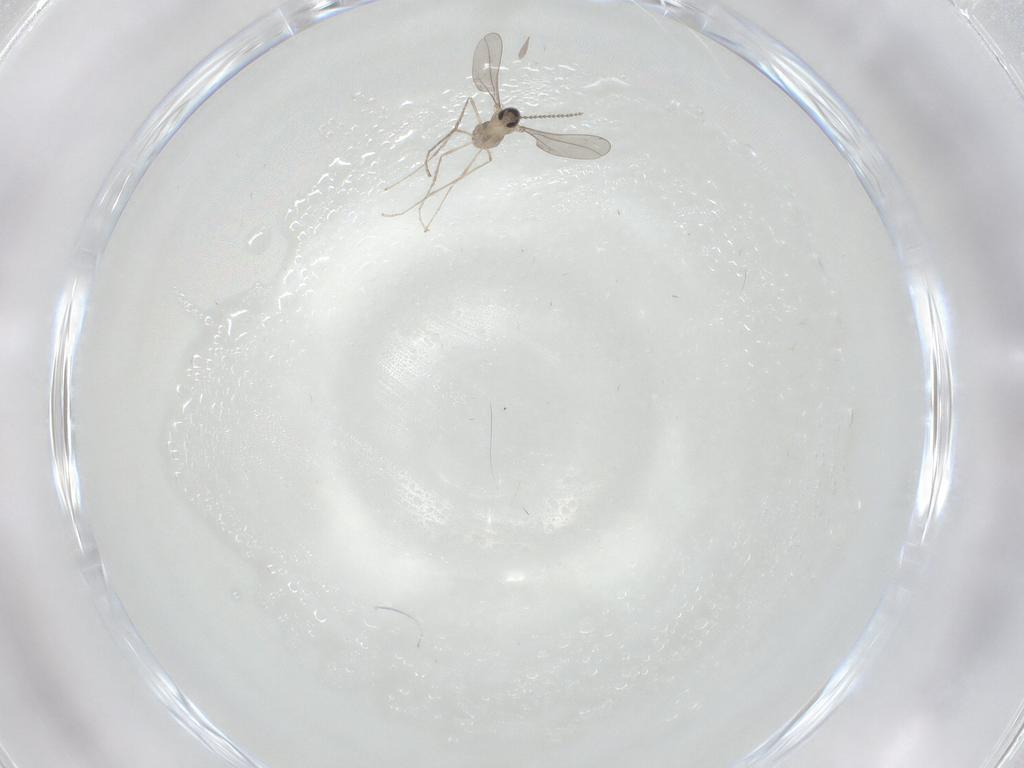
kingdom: Animalia
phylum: Arthropoda
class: Insecta
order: Diptera
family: Cecidomyiidae
